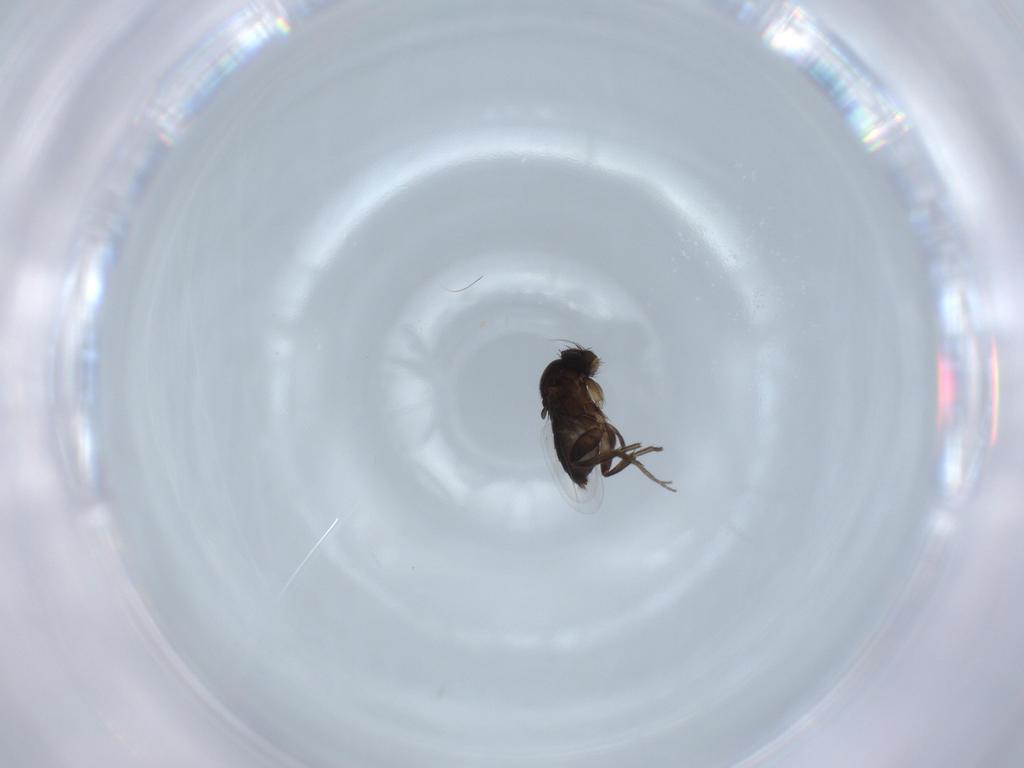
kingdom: Animalia
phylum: Arthropoda
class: Insecta
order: Diptera
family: Phoridae
